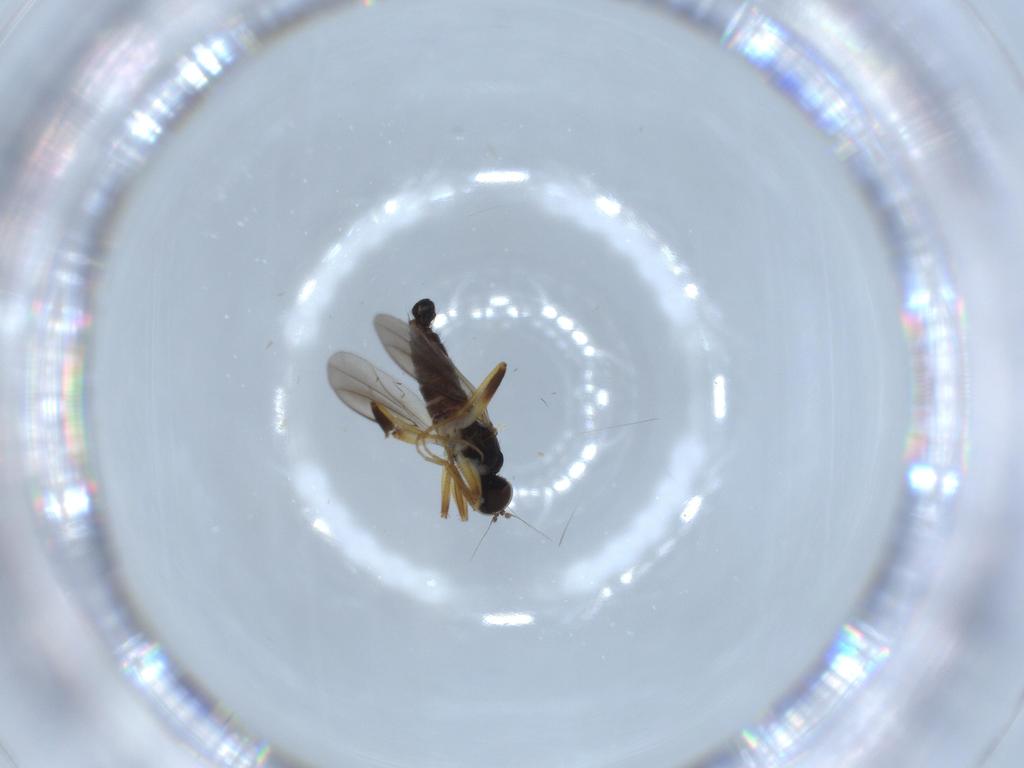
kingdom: Animalia
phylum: Arthropoda
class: Insecta
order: Diptera
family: Hybotidae
